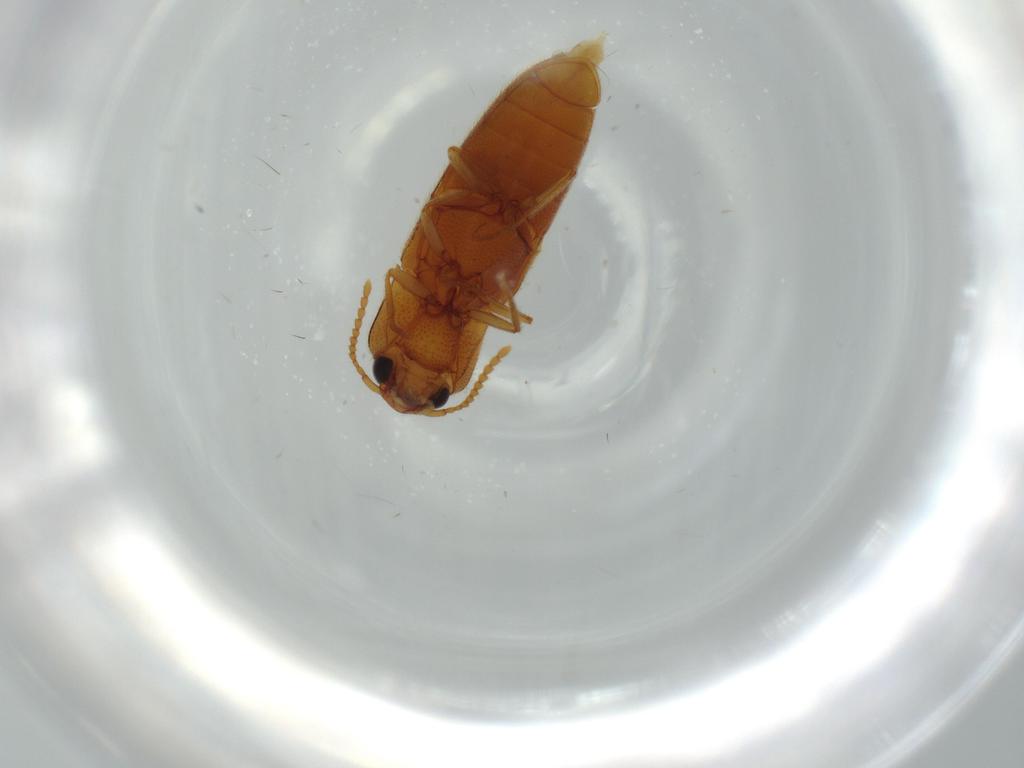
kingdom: Animalia
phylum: Arthropoda
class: Insecta
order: Coleoptera
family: Elateridae
